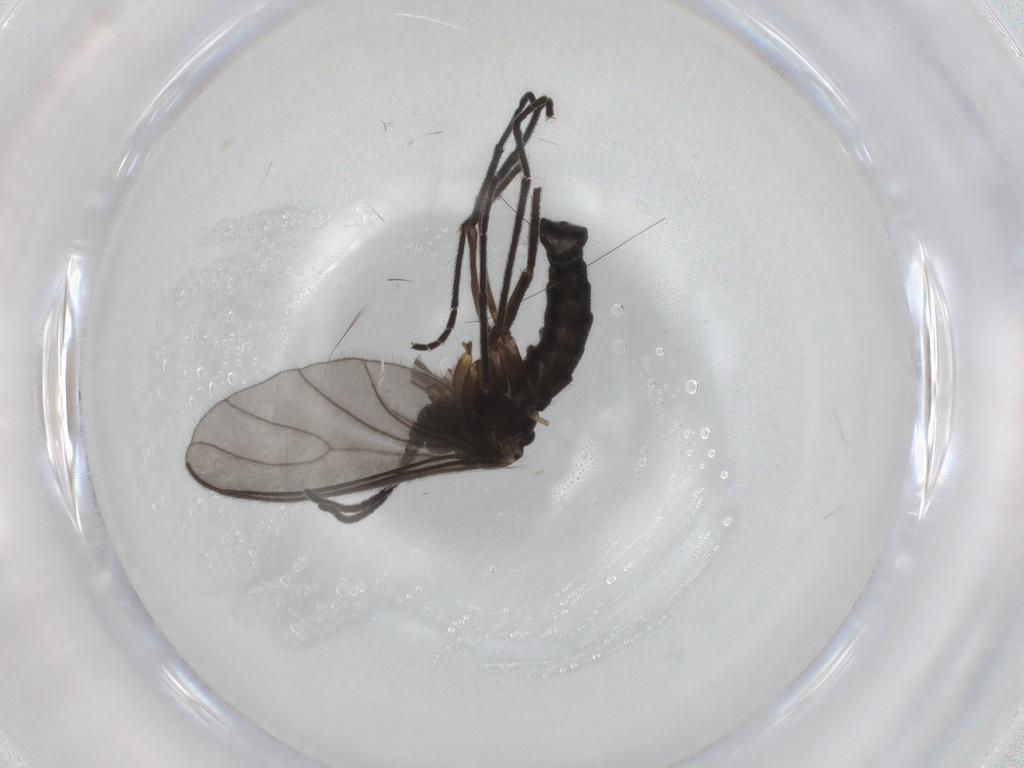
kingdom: Animalia
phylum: Arthropoda
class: Insecta
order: Diptera
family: Sciaridae
